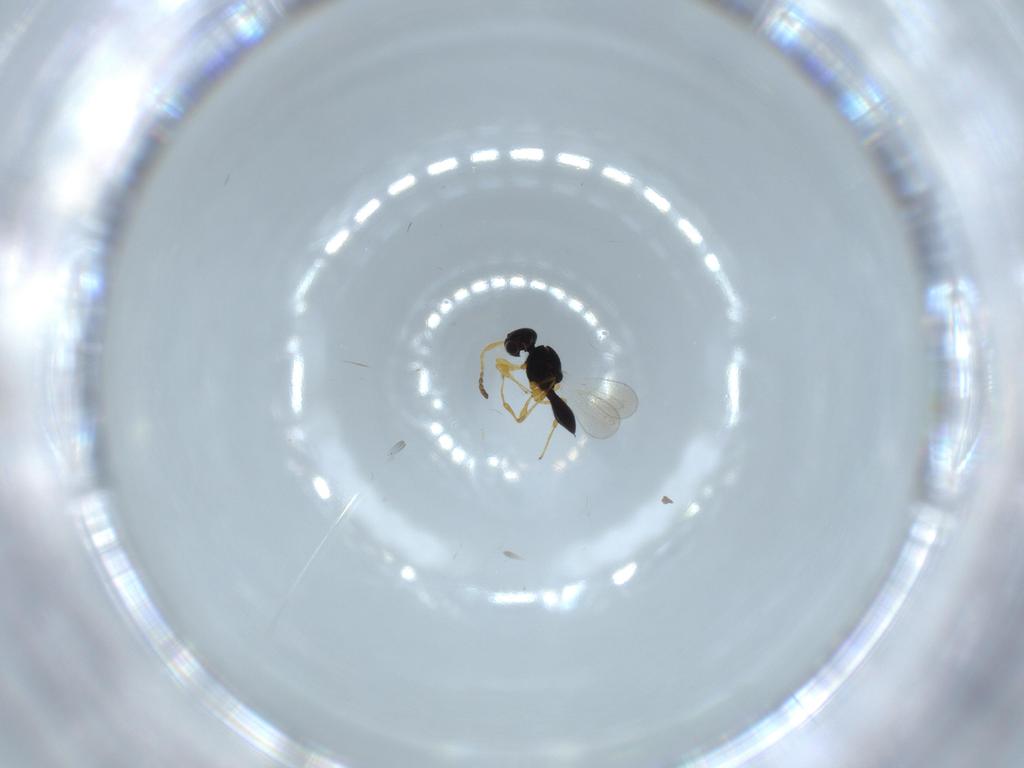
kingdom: Animalia
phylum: Arthropoda
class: Insecta
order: Hymenoptera
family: Platygastridae
